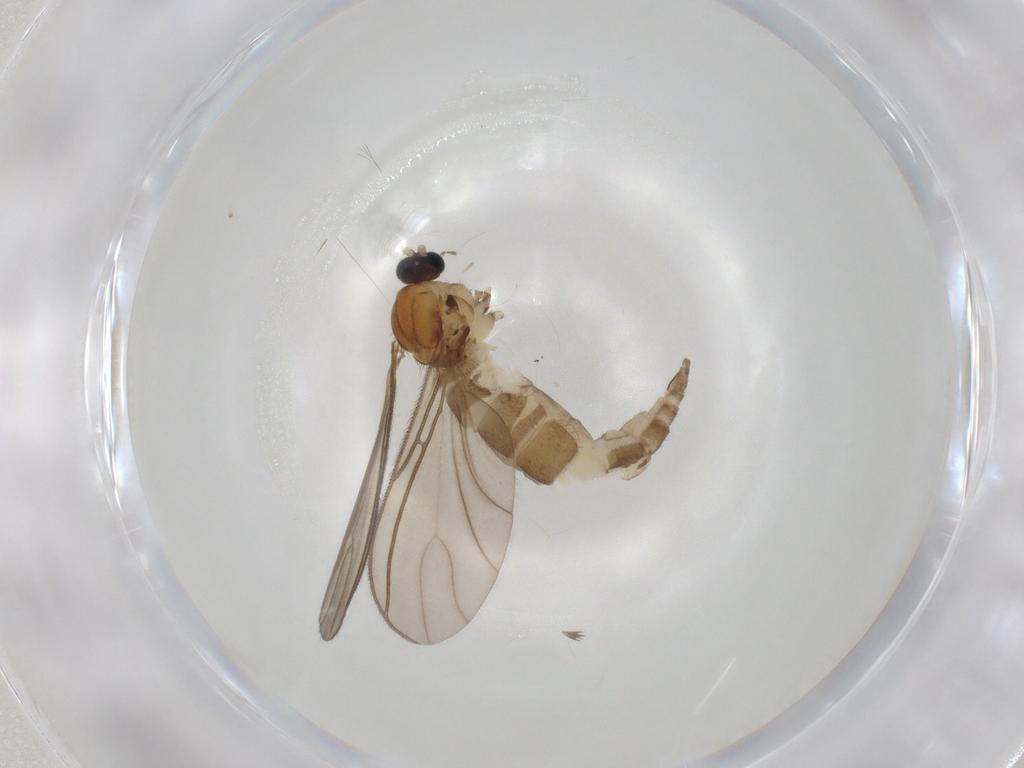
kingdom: Animalia
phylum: Arthropoda
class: Insecta
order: Diptera
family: Chironomidae
